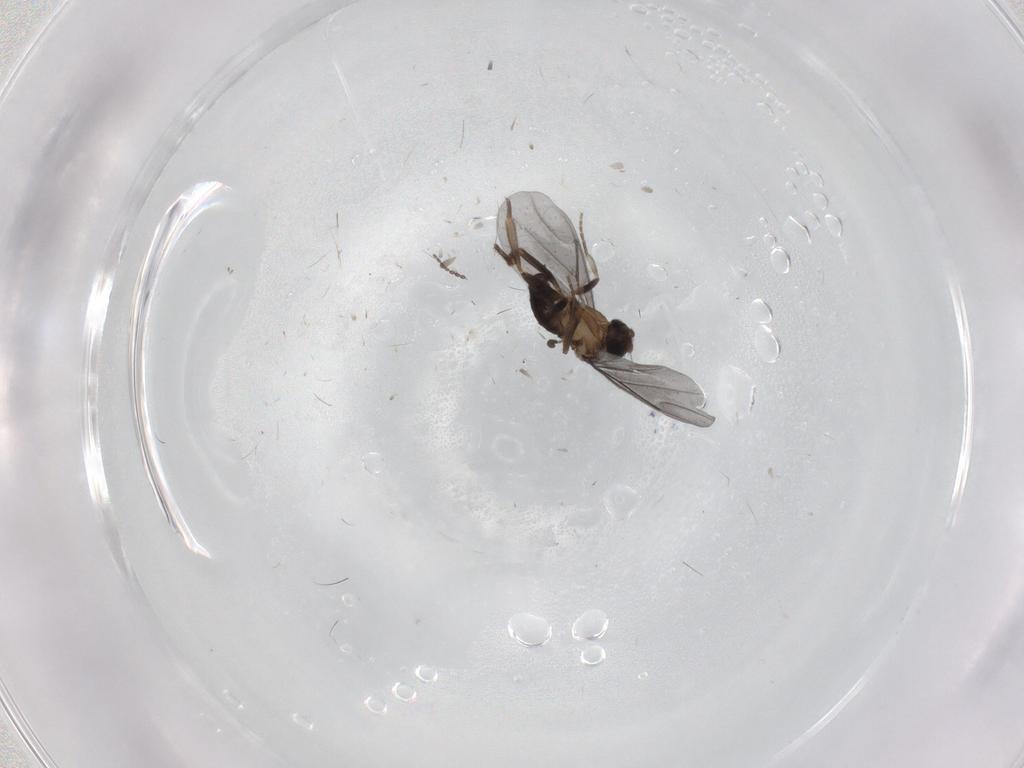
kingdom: Animalia
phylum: Arthropoda
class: Insecta
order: Diptera
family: Phoridae
